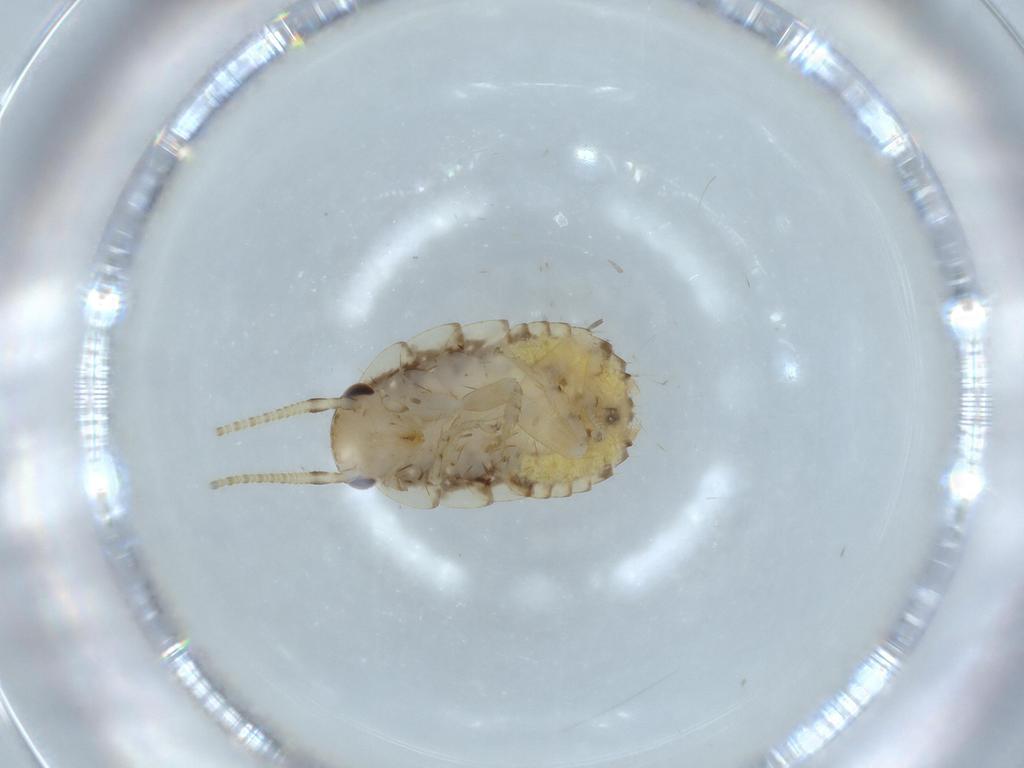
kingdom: Animalia
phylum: Arthropoda
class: Insecta
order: Blattodea
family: Ectobiidae
